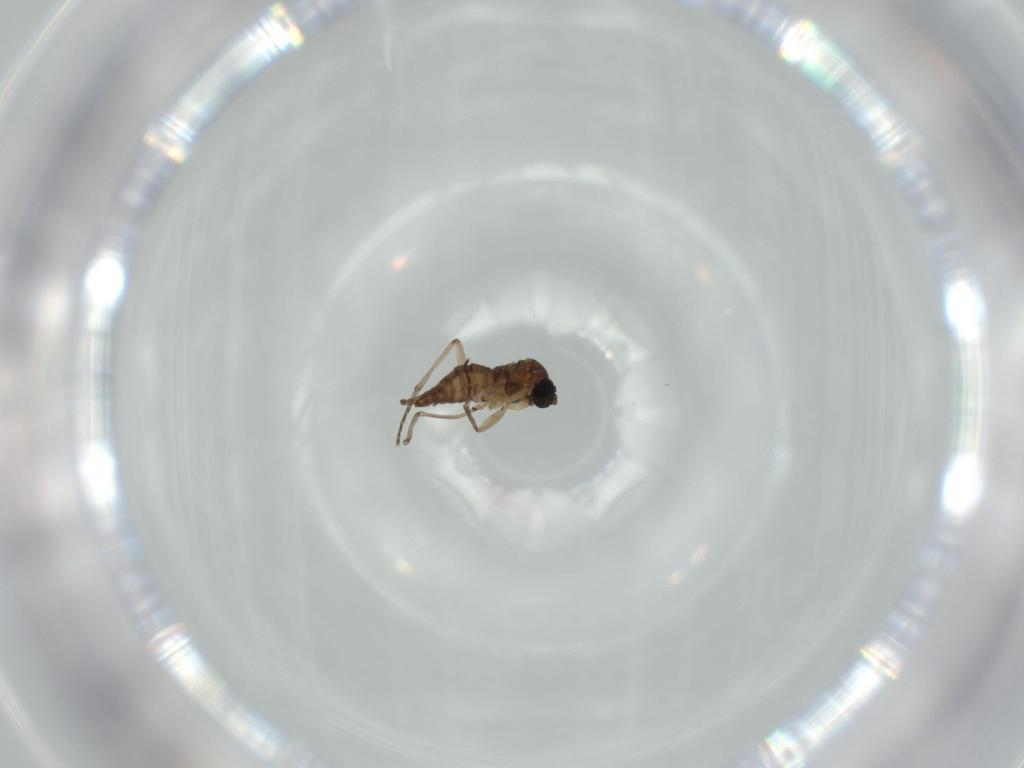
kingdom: Animalia
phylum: Arthropoda
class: Insecta
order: Diptera
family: Sciaridae
